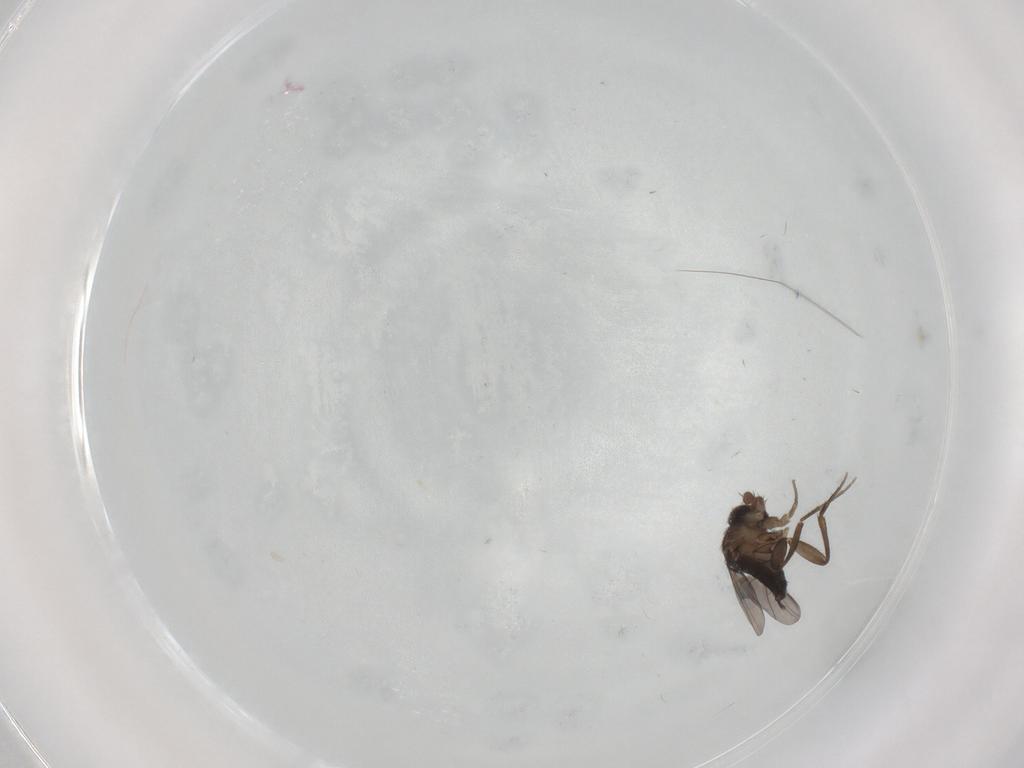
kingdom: Animalia
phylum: Arthropoda
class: Insecta
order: Diptera
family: Phoridae
